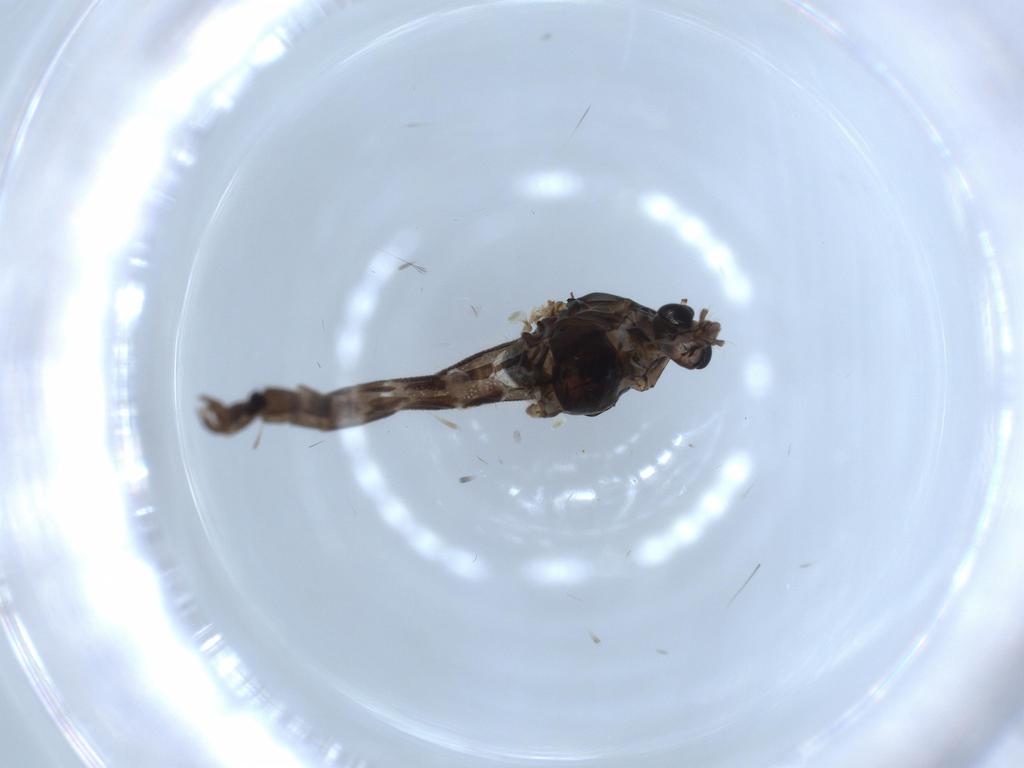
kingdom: Animalia
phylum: Arthropoda
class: Insecta
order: Diptera
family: Chironomidae
